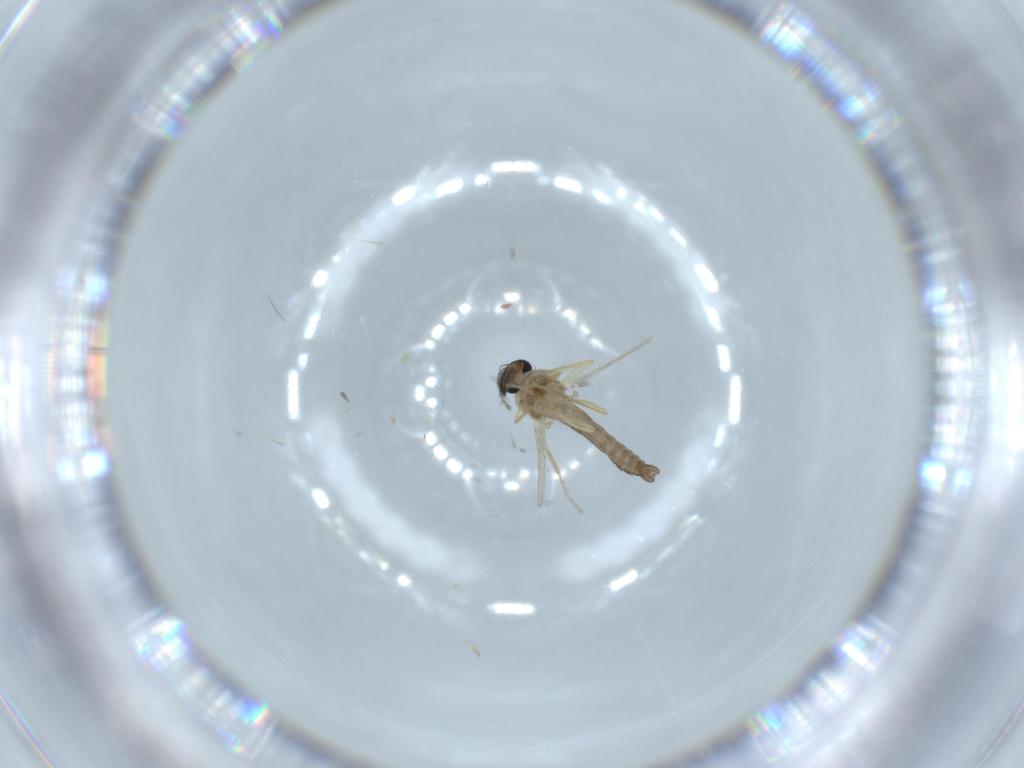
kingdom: Animalia
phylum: Arthropoda
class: Insecta
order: Diptera
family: Ceratopogonidae
